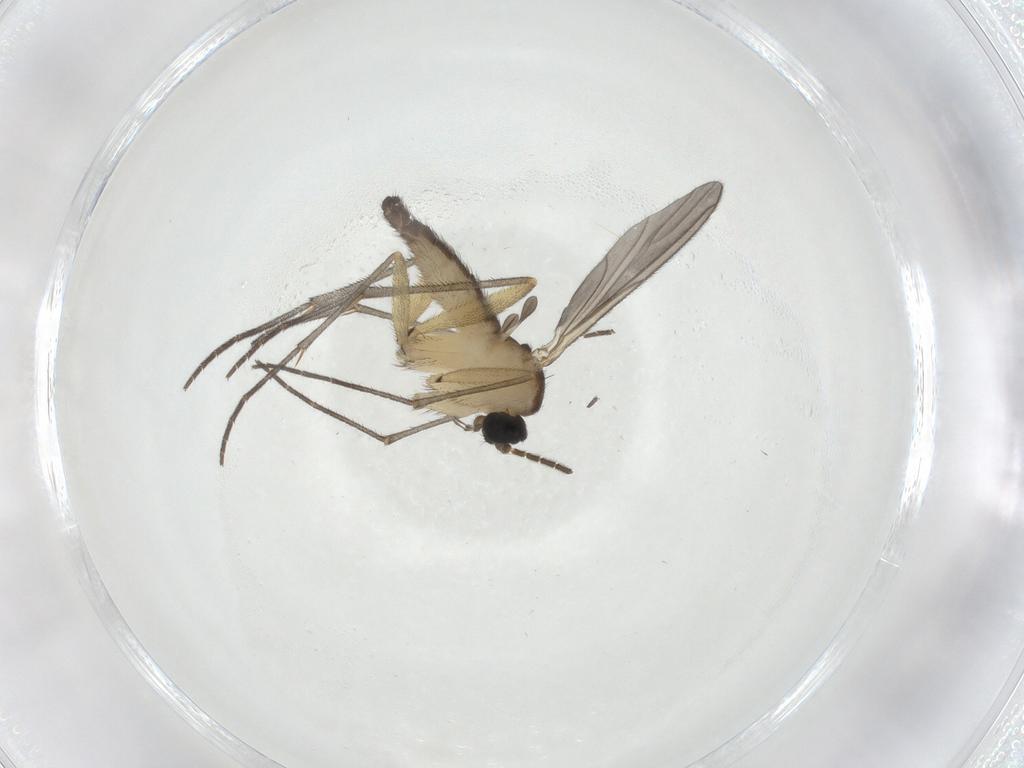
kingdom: Animalia
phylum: Arthropoda
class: Insecta
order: Diptera
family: Sciaridae
